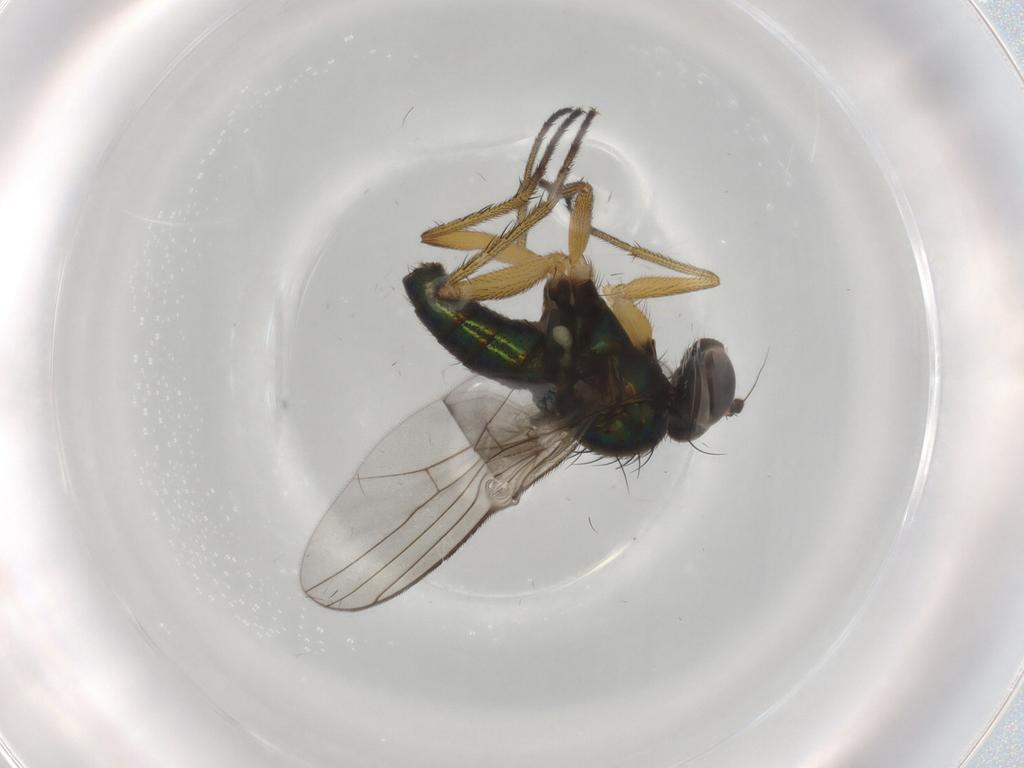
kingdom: Animalia
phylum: Arthropoda
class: Insecta
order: Diptera
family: Dolichopodidae
